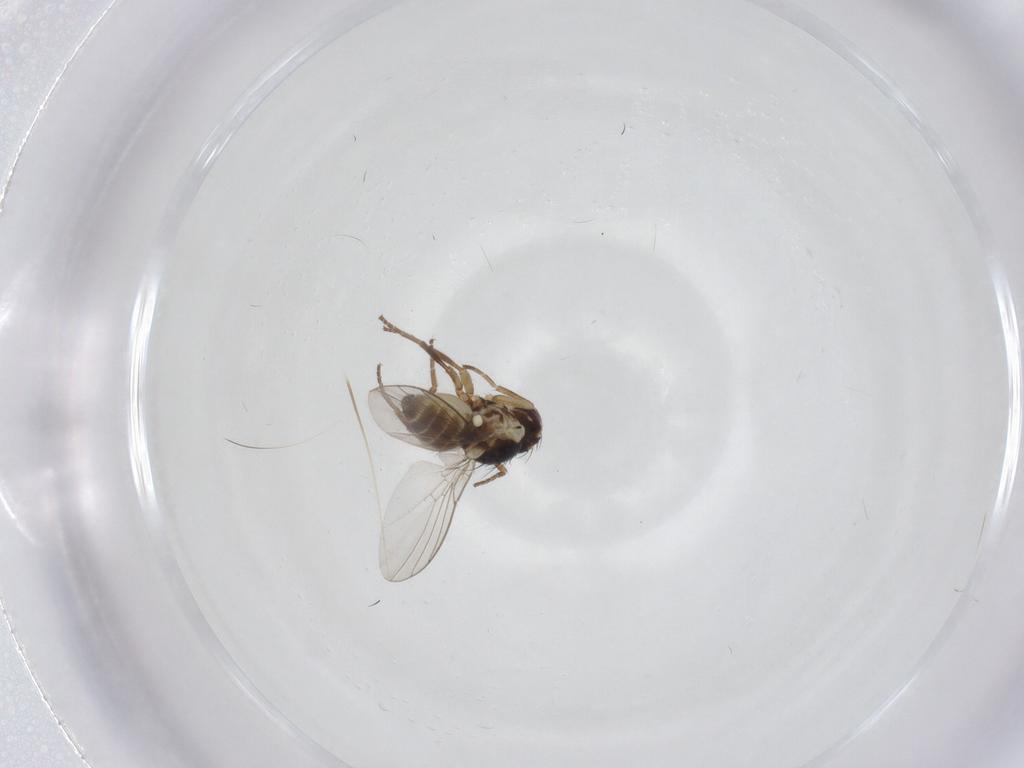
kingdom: Animalia
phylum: Arthropoda
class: Insecta
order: Diptera
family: Agromyzidae
